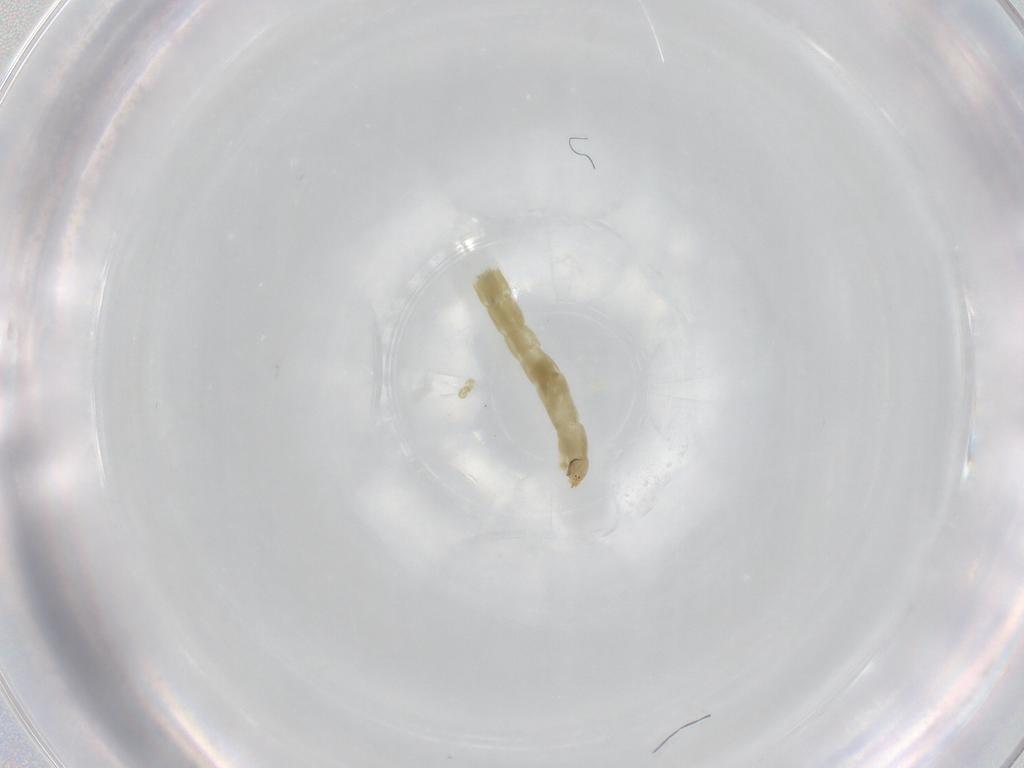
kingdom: Animalia
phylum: Arthropoda
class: Insecta
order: Diptera
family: Chironomidae
